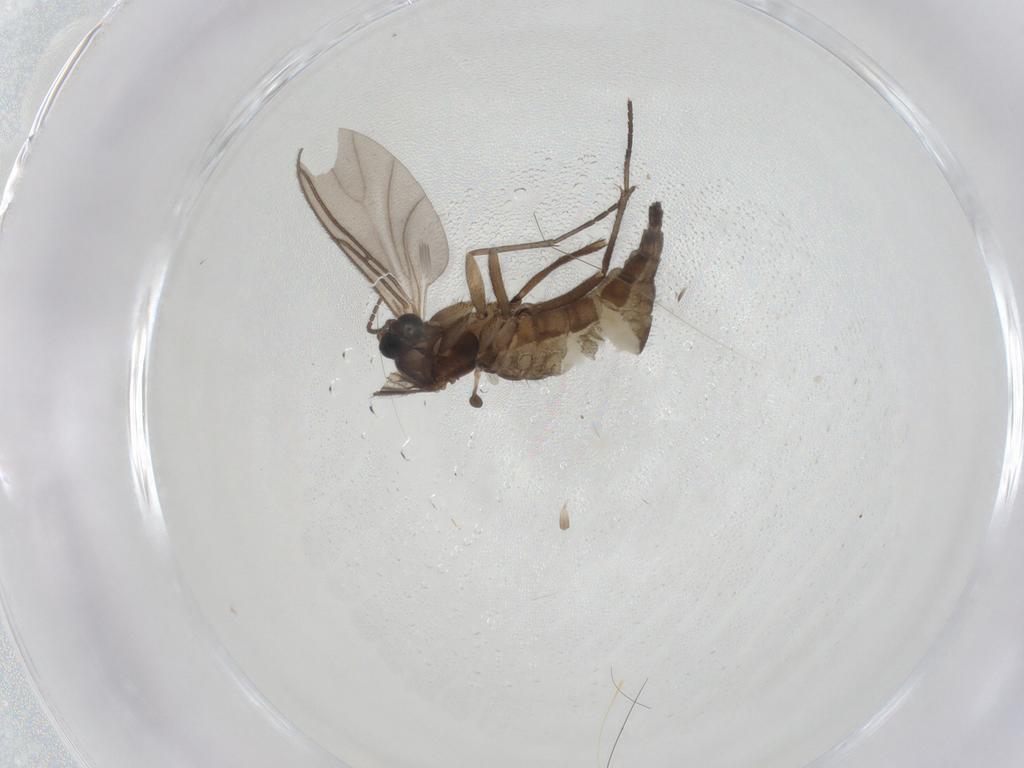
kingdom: Animalia
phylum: Arthropoda
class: Insecta
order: Diptera
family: Sciaridae
